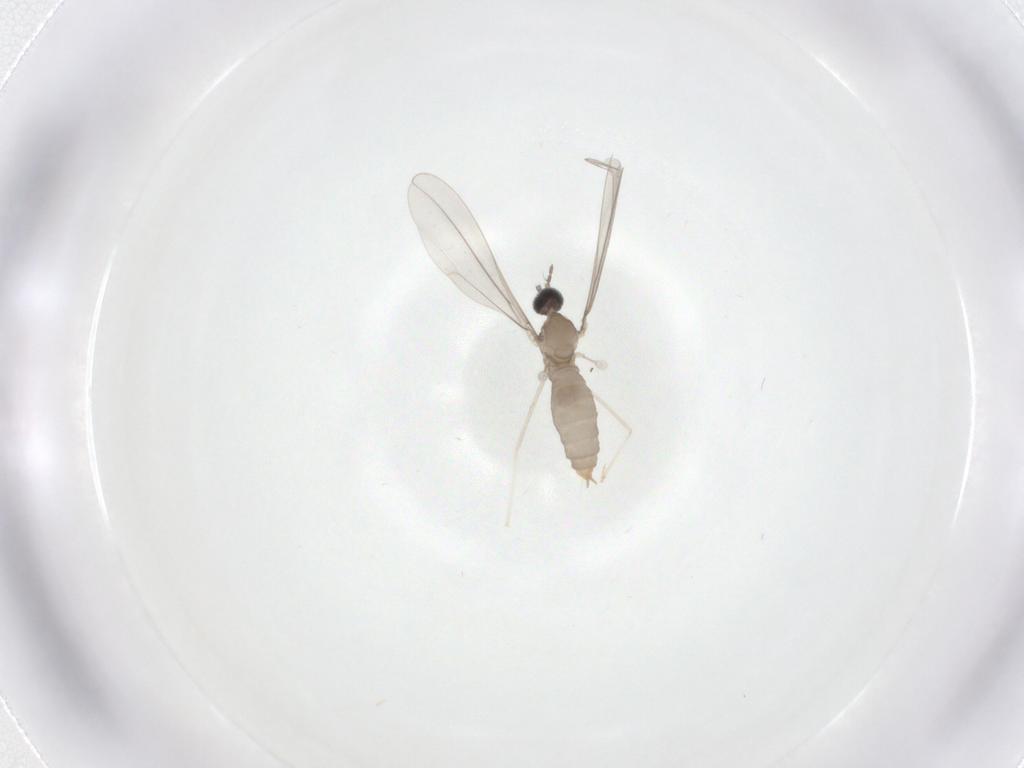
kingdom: Animalia
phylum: Arthropoda
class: Insecta
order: Diptera
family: Cecidomyiidae
